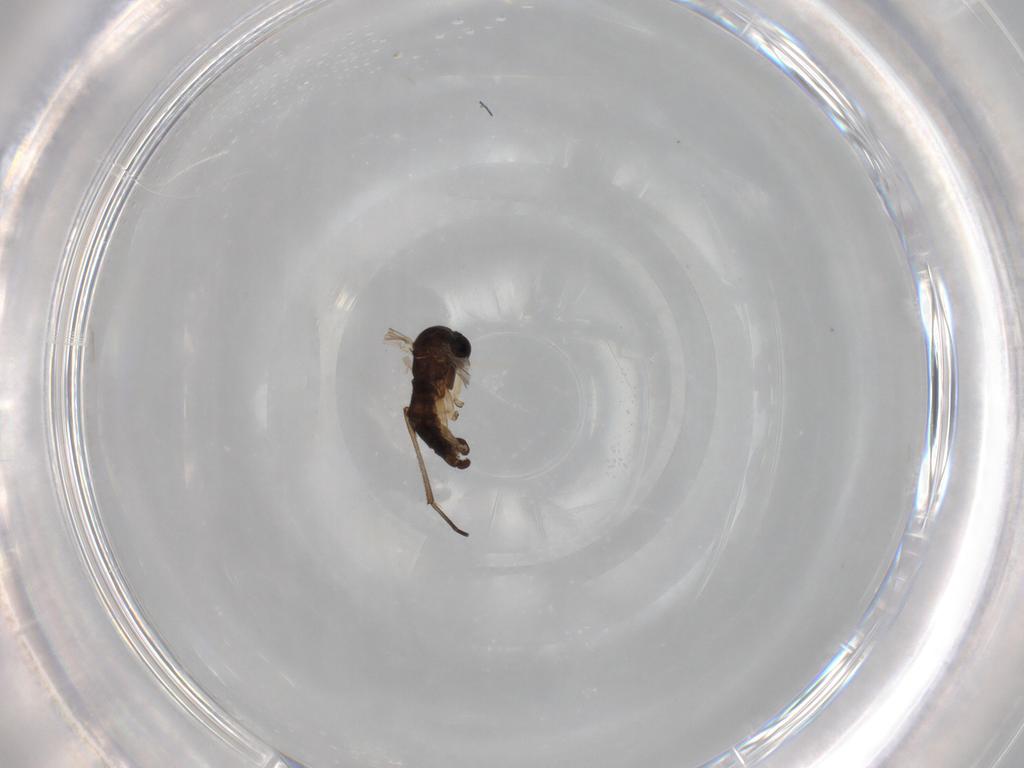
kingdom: Animalia
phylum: Arthropoda
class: Insecta
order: Diptera
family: Sciaridae
